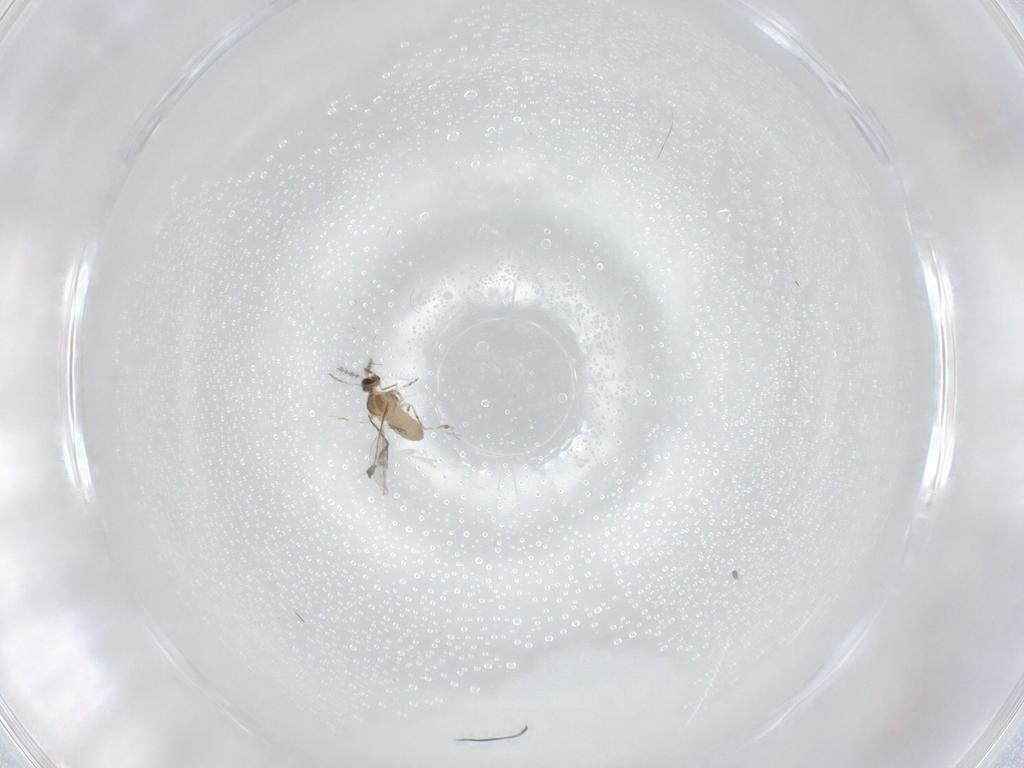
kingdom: Animalia
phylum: Arthropoda
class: Insecta
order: Diptera
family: Cecidomyiidae
